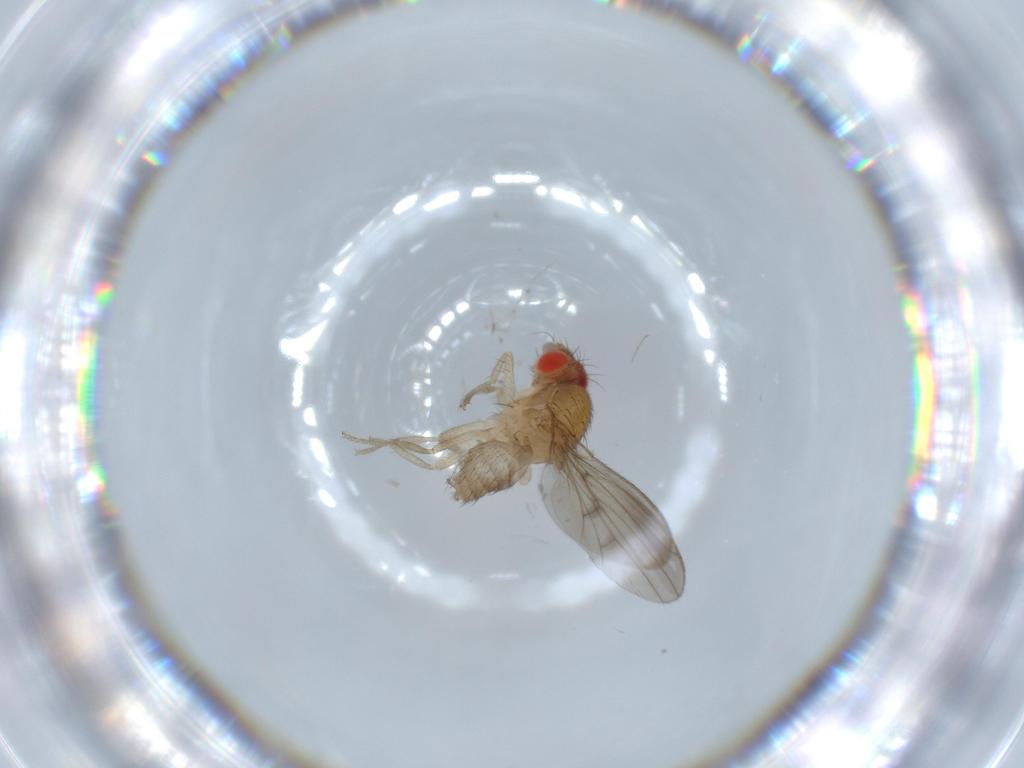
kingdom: Animalia
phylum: Arthropoda
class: Insecta
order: Diptera
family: Drosophilidae
